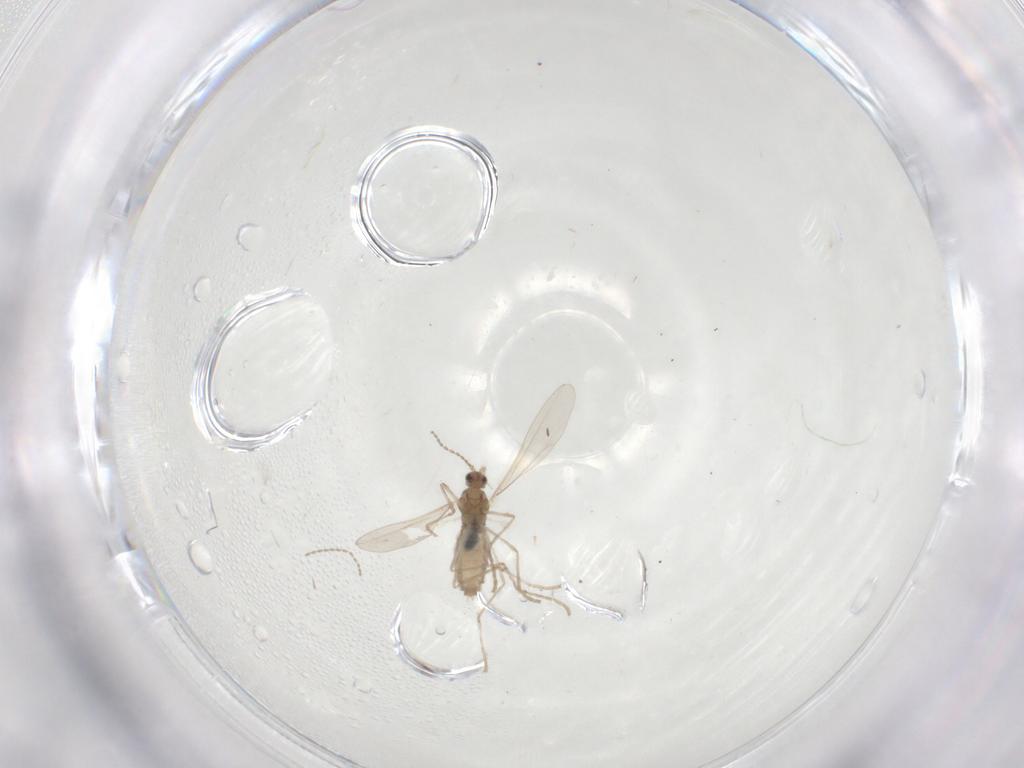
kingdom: Animalia
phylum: Arthropoda
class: Insecta
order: Diptera
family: Cecidomyiidae
